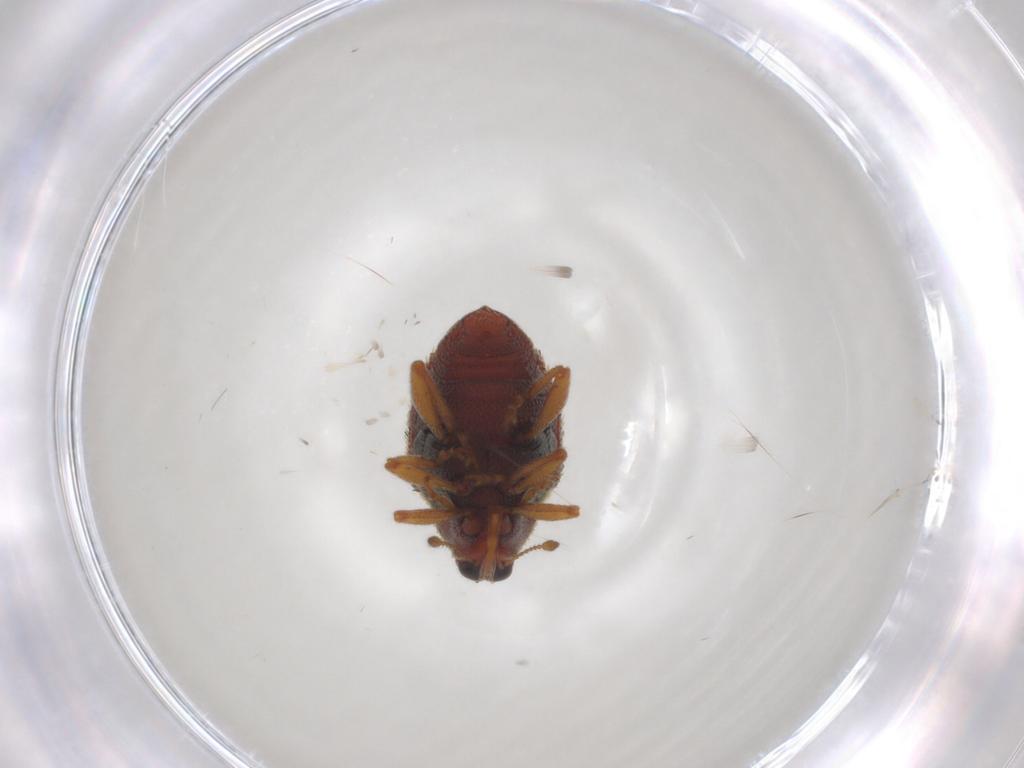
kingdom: Animalia
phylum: Arthropoda
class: Insecta
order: Coleoptera
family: Curculionidae
